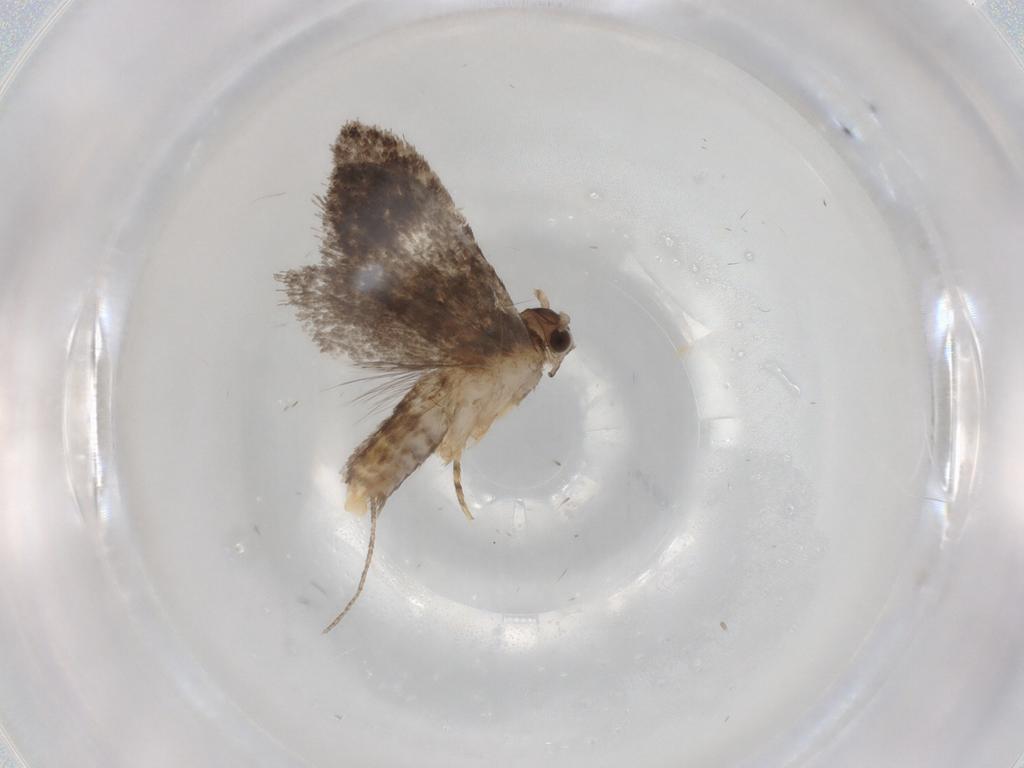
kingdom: Animalia
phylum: Arthropoda
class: Insecta
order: Lepidoptera
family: Dryadaulidae
